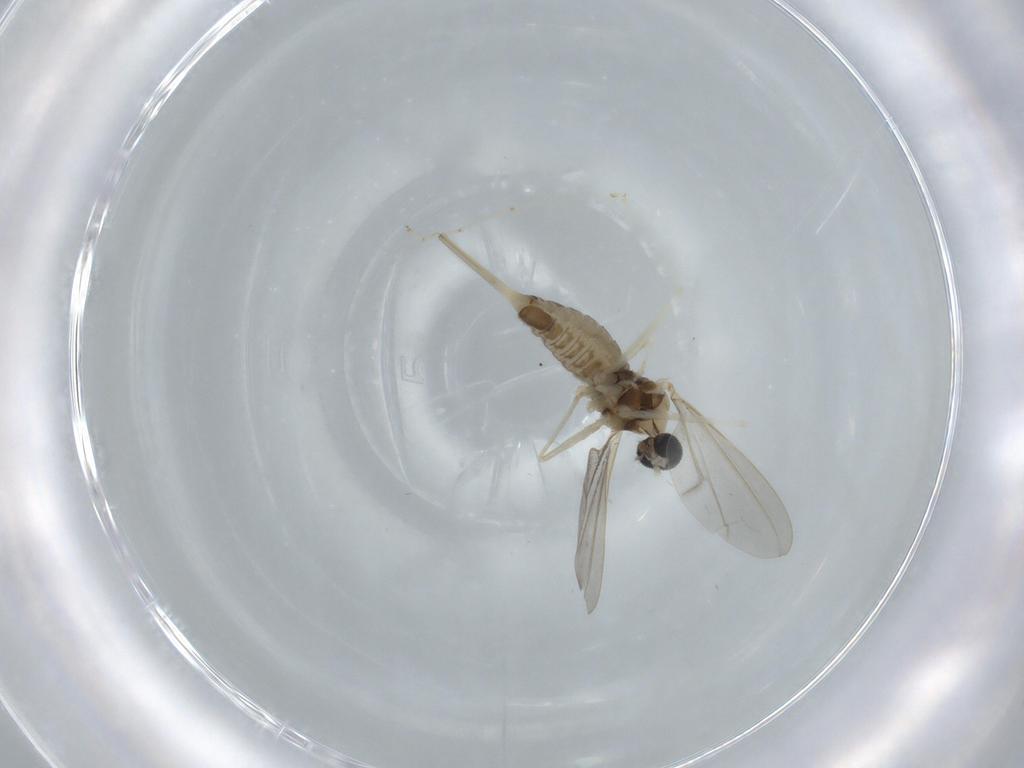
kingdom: Animalia
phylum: Arthropoda
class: Insecta
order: Diptera
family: Cecidomyiidae
